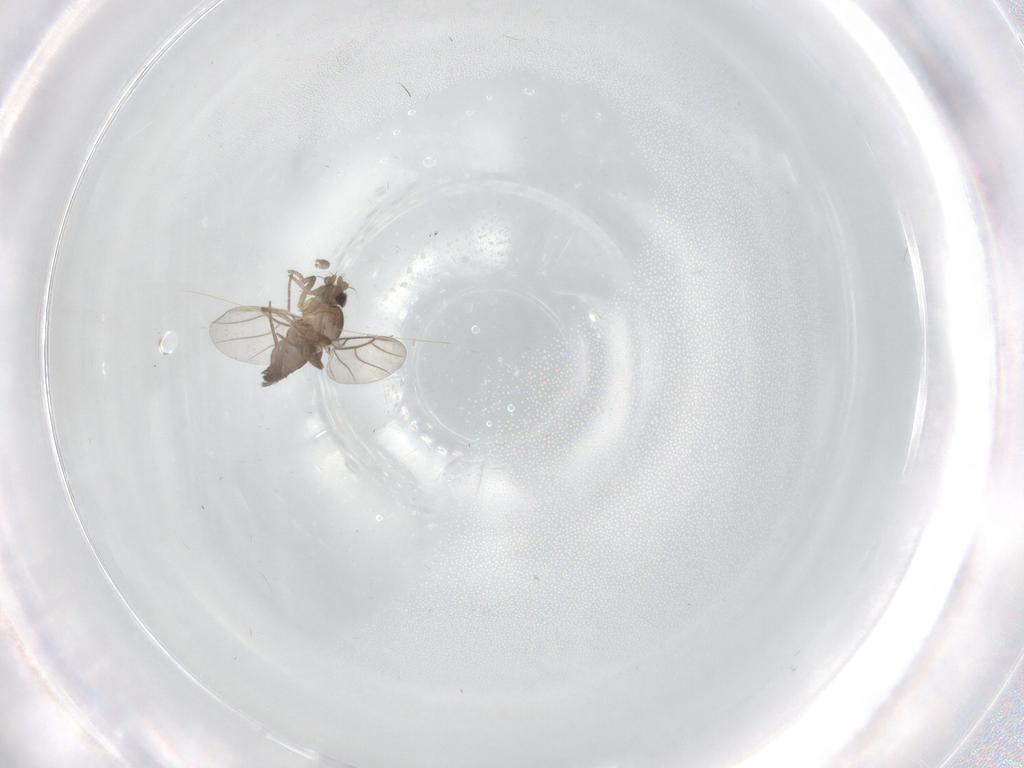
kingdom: Animalia
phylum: Arthropoda
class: Insecta
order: Diptera
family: Phoridae
